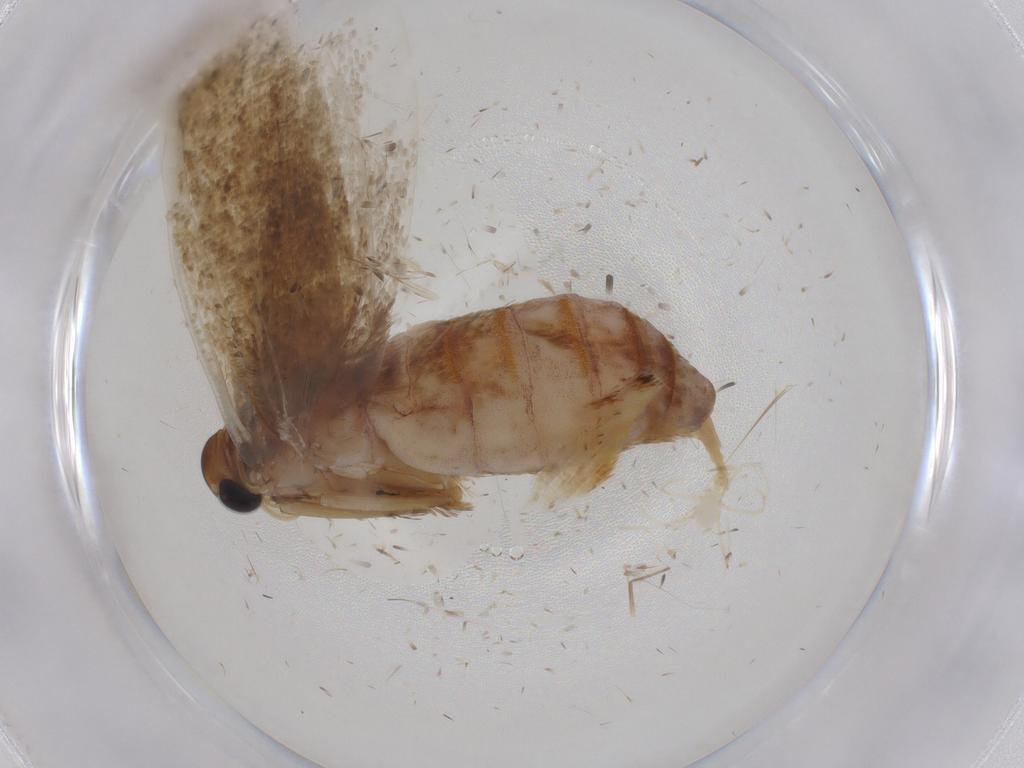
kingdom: Animalia
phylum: Arthropoda
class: Insecta
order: Lepidoptera
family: Blastobasidae
